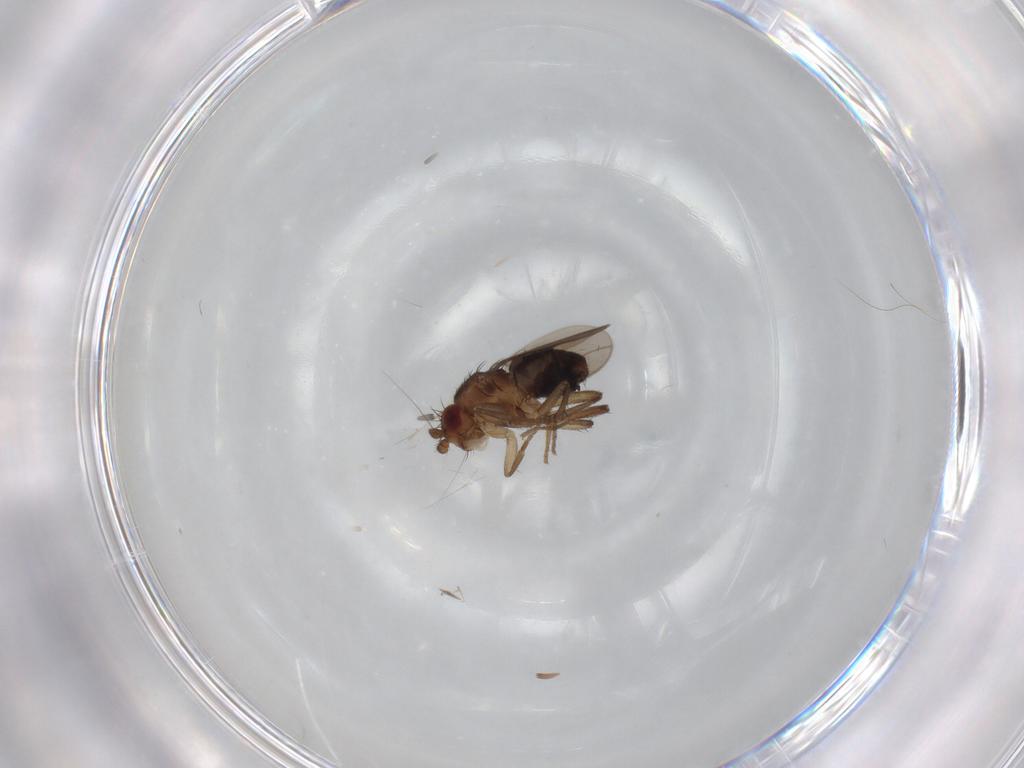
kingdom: Animalia
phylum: Arthropoda
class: Insecta
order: Diptera
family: Sphaeroceridae
